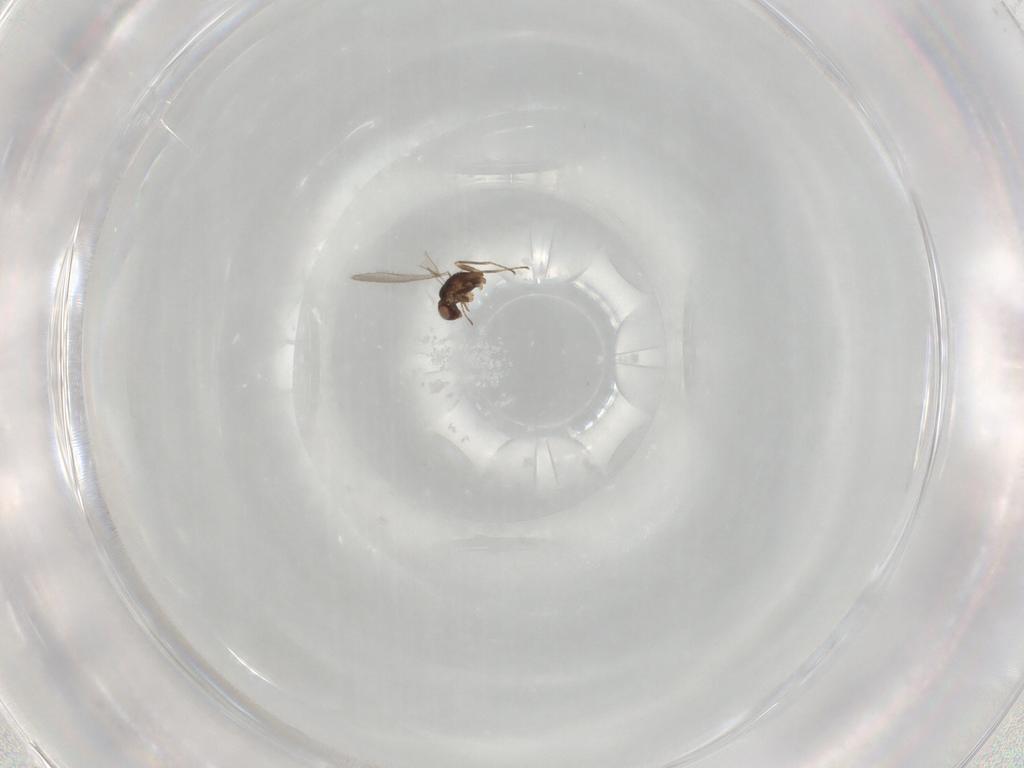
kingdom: Animalia
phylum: Arthropoda
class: Insecta
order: Hymenoptera
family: Mymaridae
